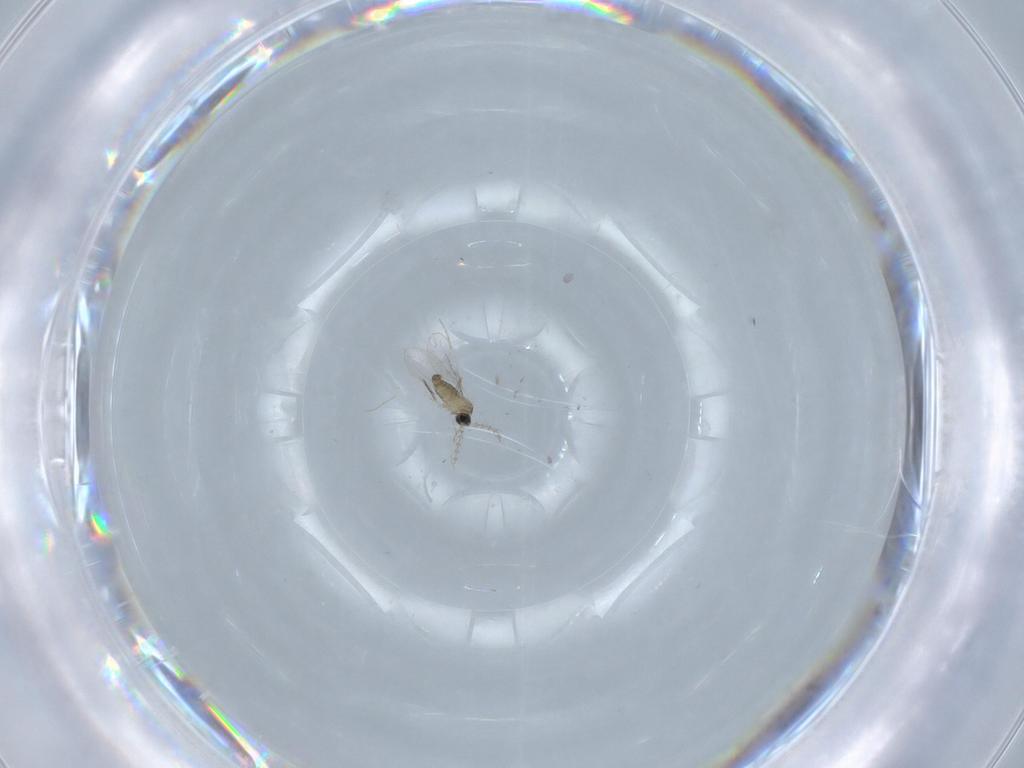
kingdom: Animalia
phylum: Arthropoda
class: Insecta
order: Diptera
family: Cecidomyiidae
